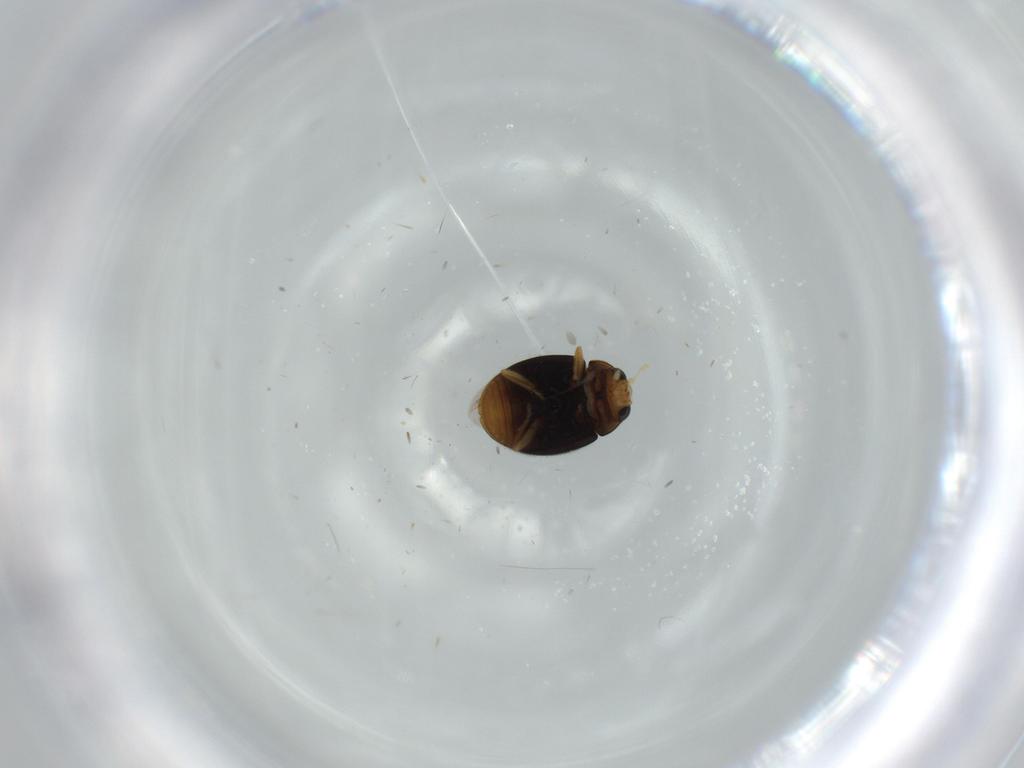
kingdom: Animalia
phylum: Arthropoda
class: Insecta
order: Coleoptera
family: Coccinellidae
